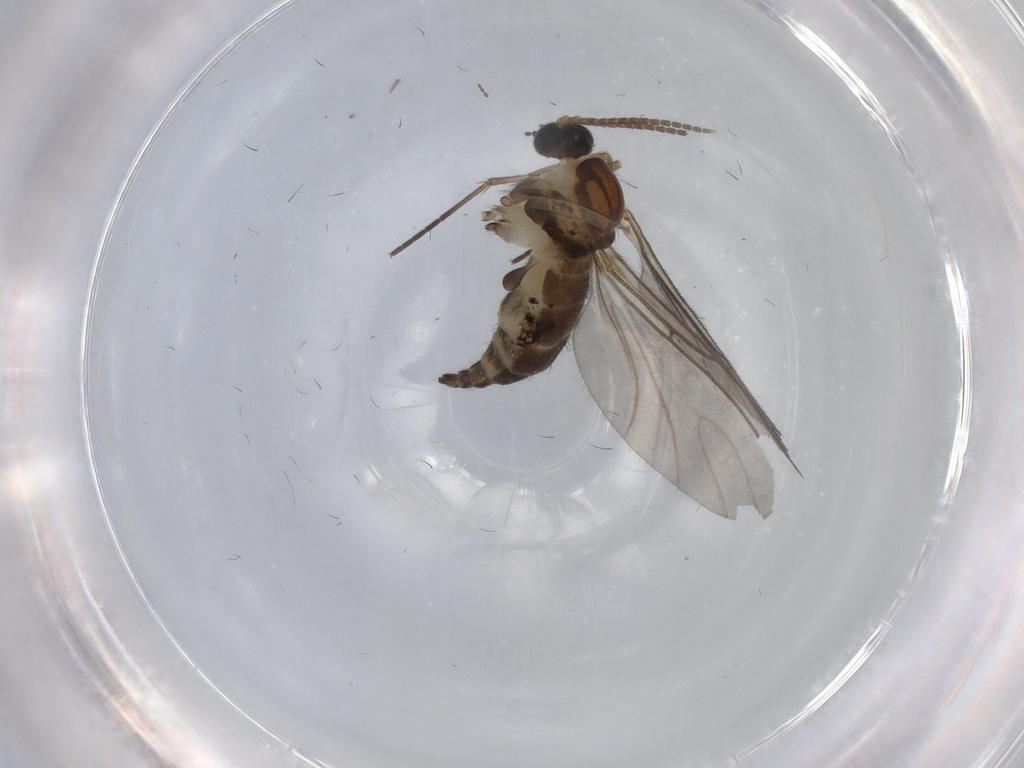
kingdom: Animalia
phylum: Arthropoda
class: Insecta
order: Diptera
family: Sciaridae
